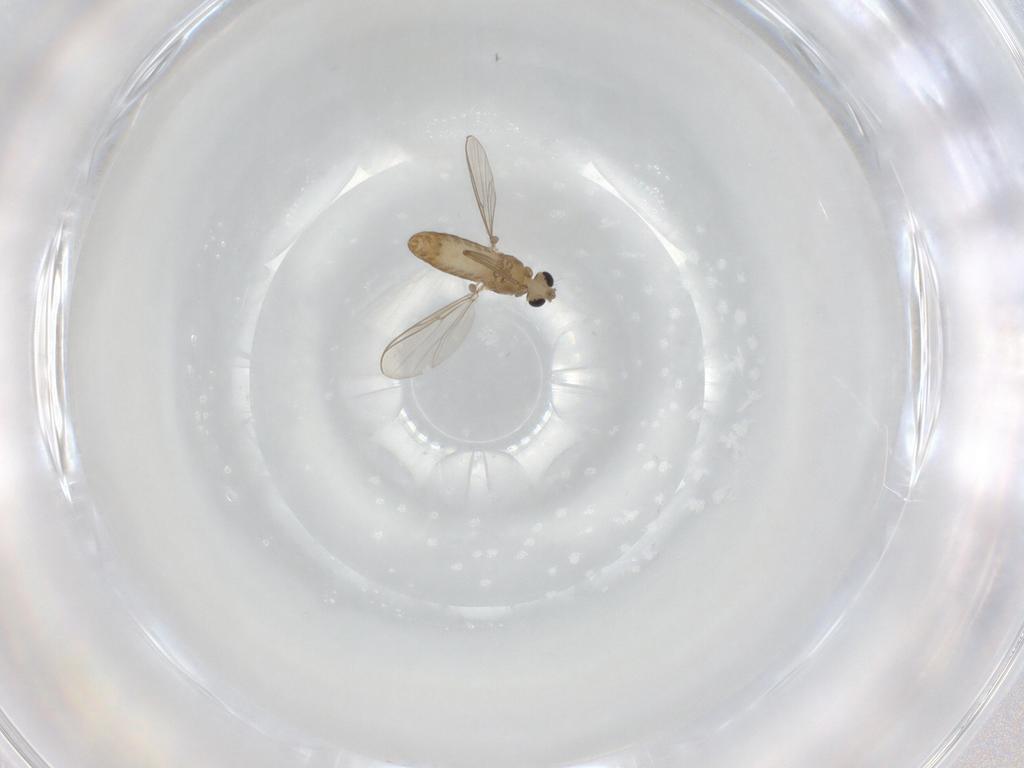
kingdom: Animalia
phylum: Arthropoda
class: Insecta
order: Diptera
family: Chironomidae
